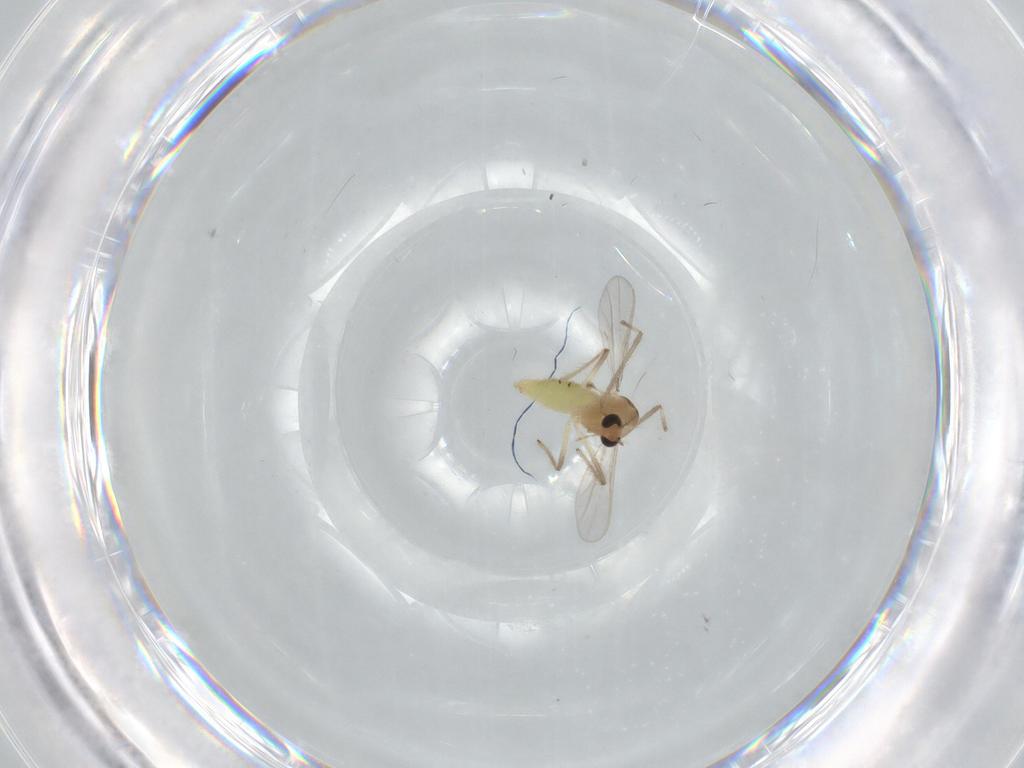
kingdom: Animalia
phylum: Arthropoda
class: Insecta
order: Diptera
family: Chironomidae
